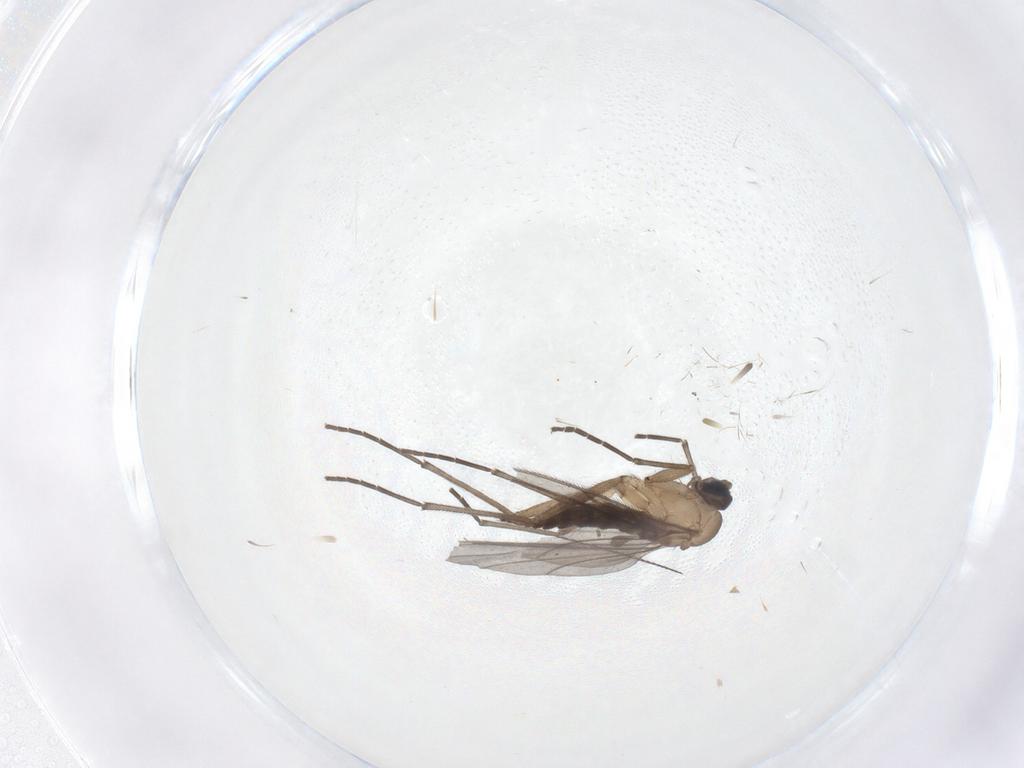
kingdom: Animalia
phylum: Arthropoda
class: Insecta
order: Diptera
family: Sciaridae
